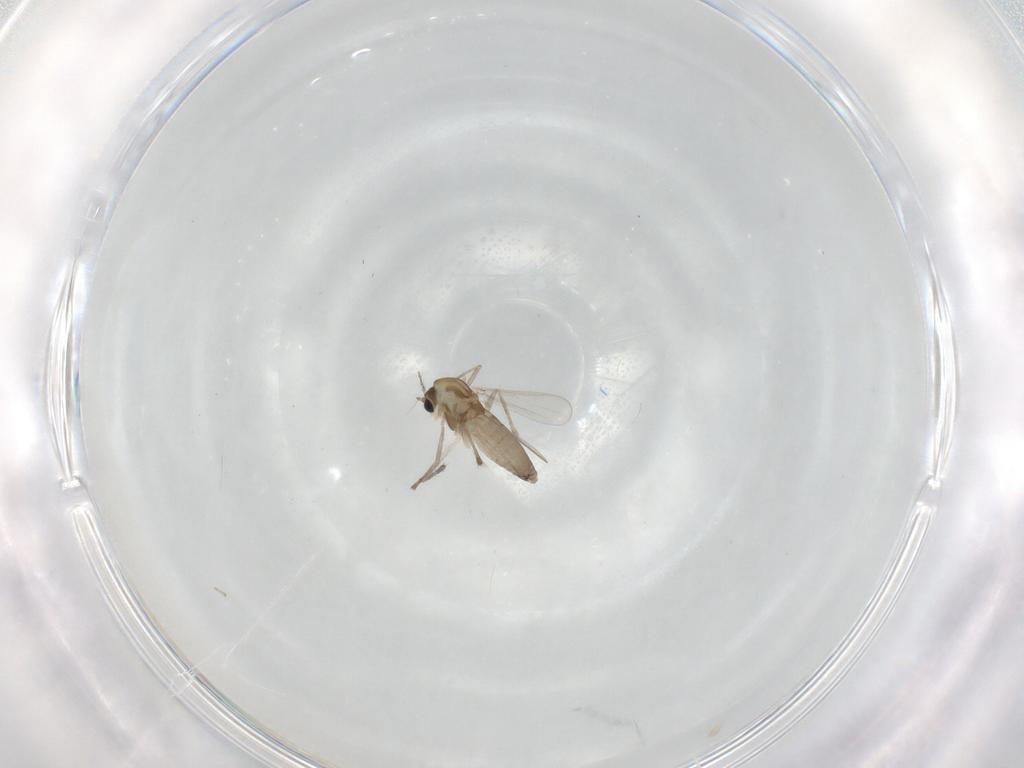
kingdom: Animalia
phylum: Arthropoda
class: Insecta
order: Diptera
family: Chironomidae
